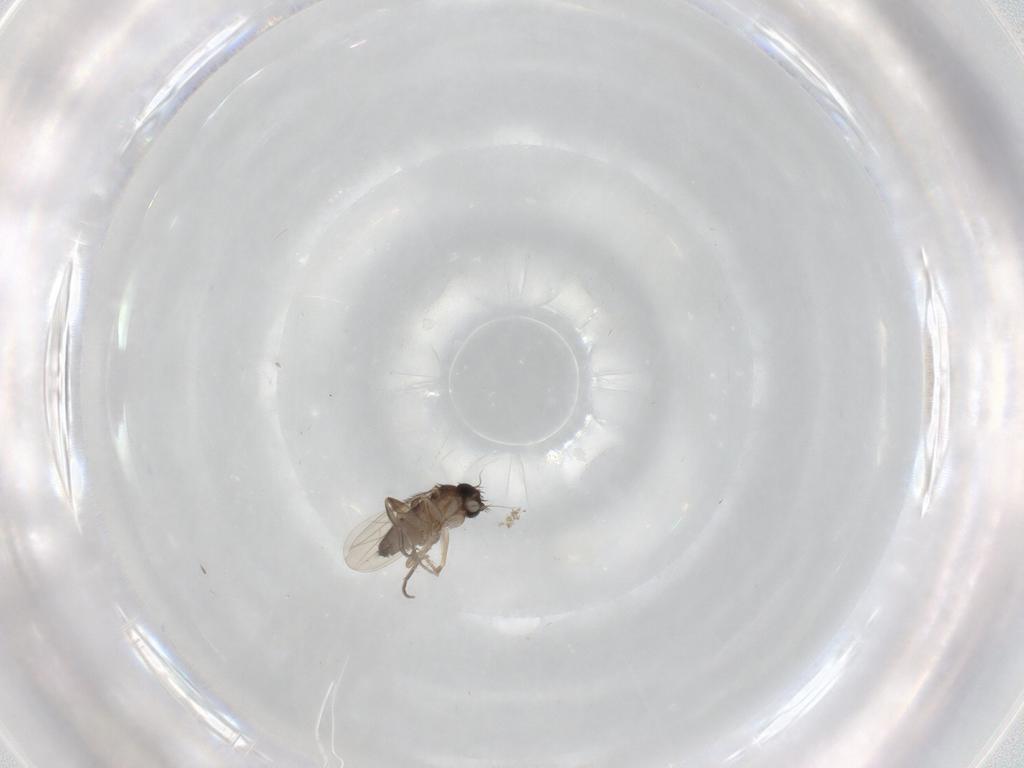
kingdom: Animalia
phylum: Arthropoda
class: Insecta
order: Diptera
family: Phoridae
